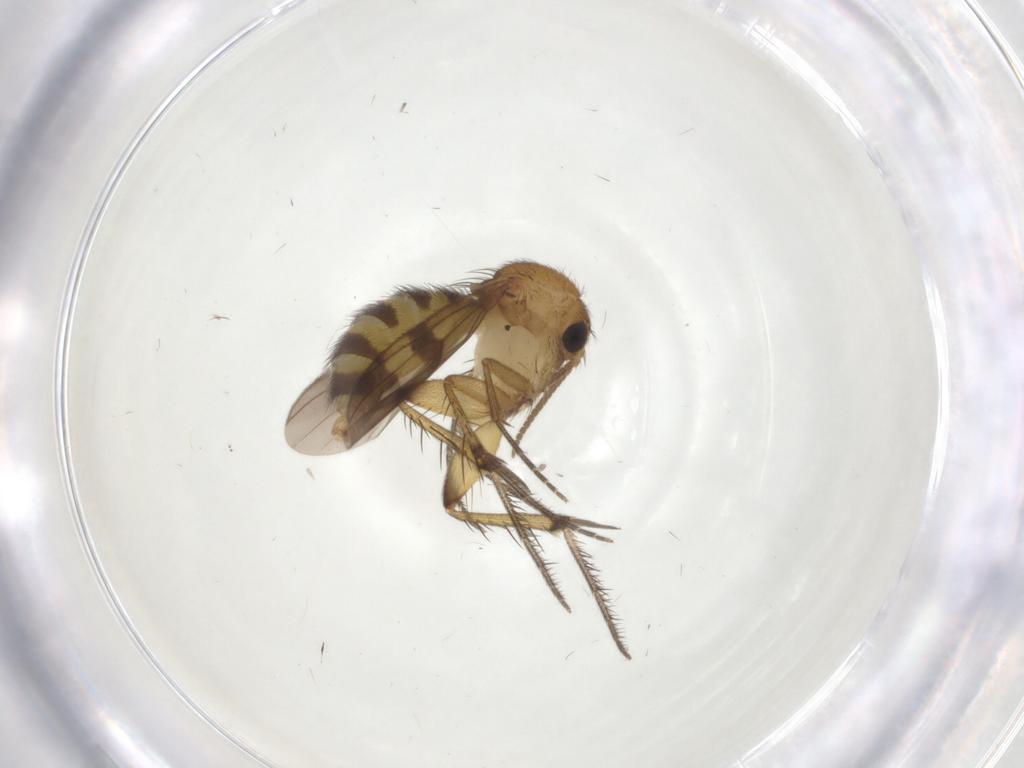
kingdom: Animalia
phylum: Arthropoda
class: Insecta
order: Diptera
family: Mycetophilidae
